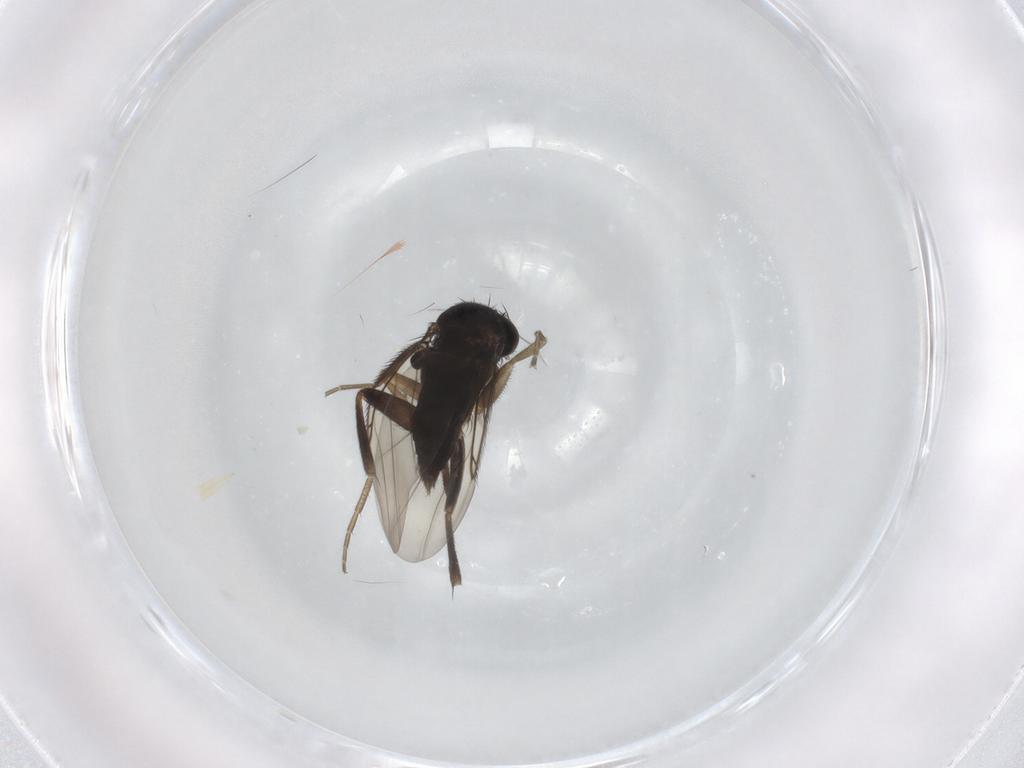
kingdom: Animalia
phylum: Arthropoda
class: Insecta
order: Diptera
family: Phoridae
